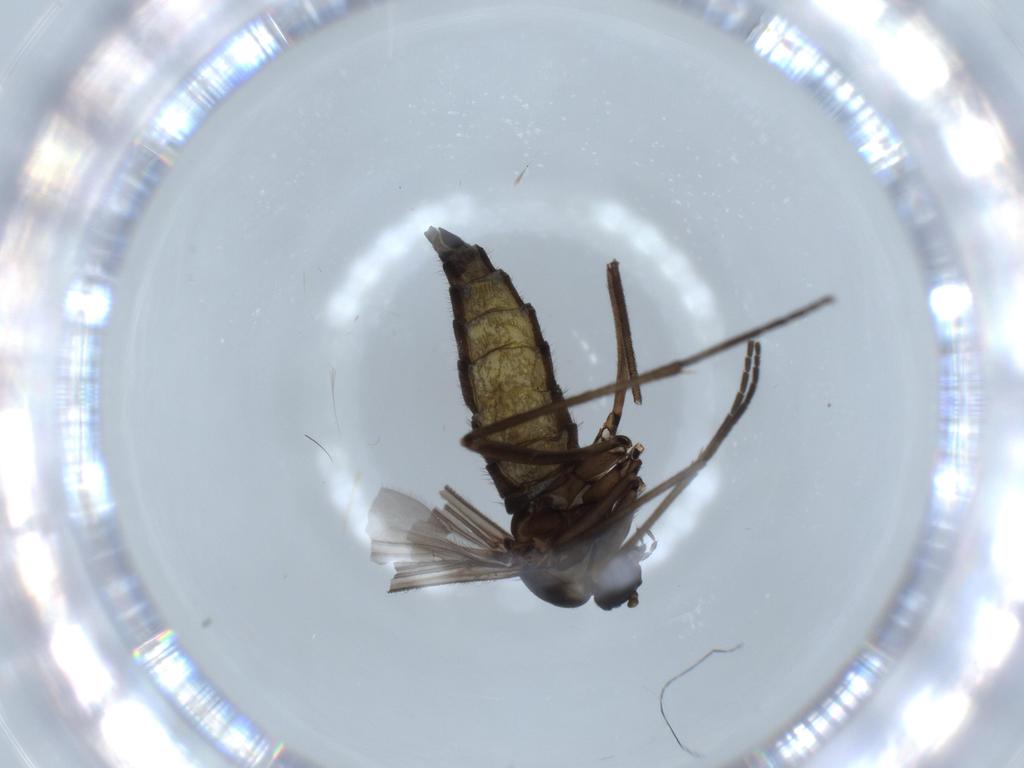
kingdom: Animalia
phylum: Arthropoda
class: Insecta
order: Diptera
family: Sciaridae
